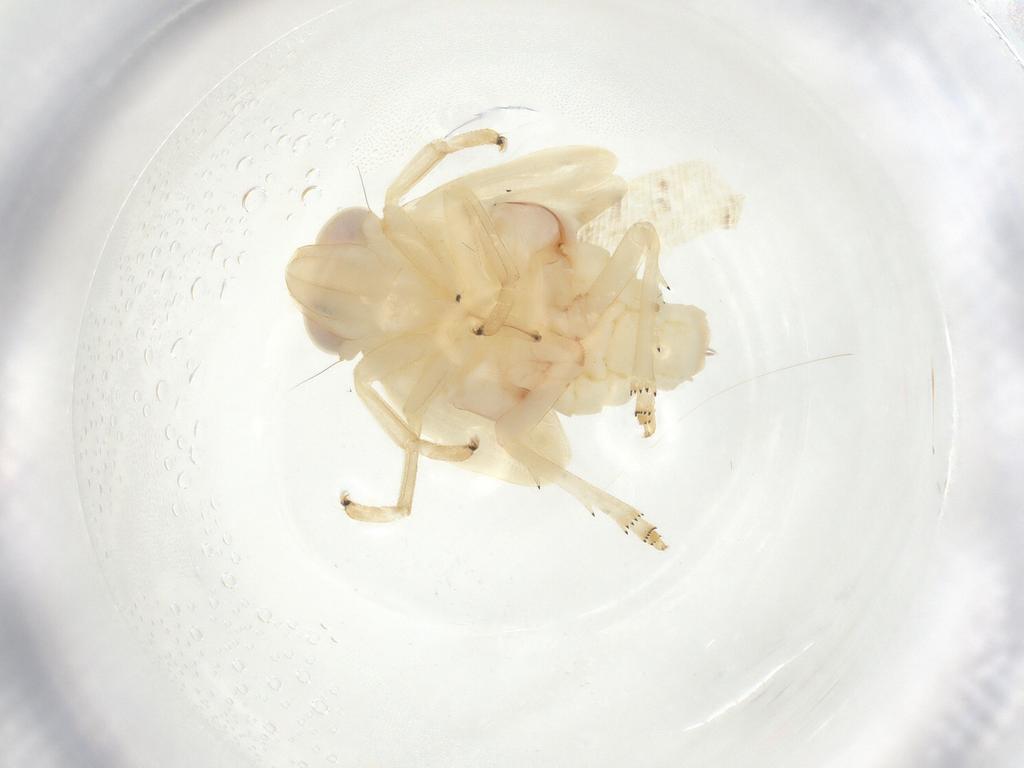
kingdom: Animalia
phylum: Arthropoda
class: Insecta
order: Hemiptera
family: Nogodinidae
